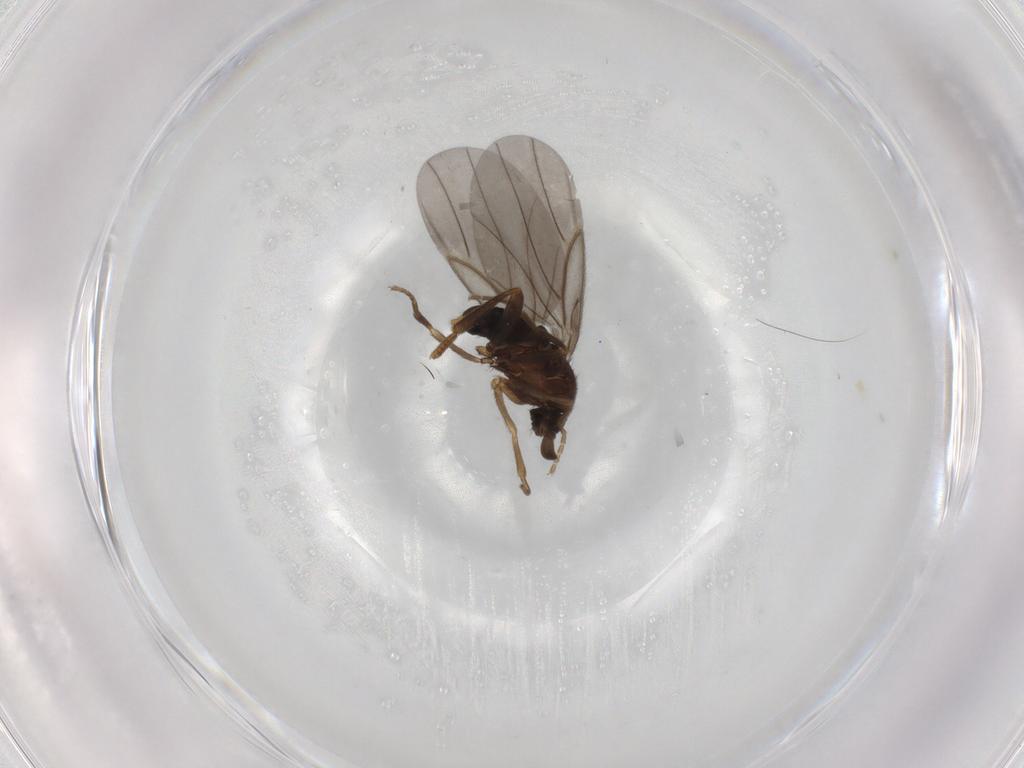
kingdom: Animalia
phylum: Arthropoda
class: Insecta
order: Diptera
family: Phoridae
